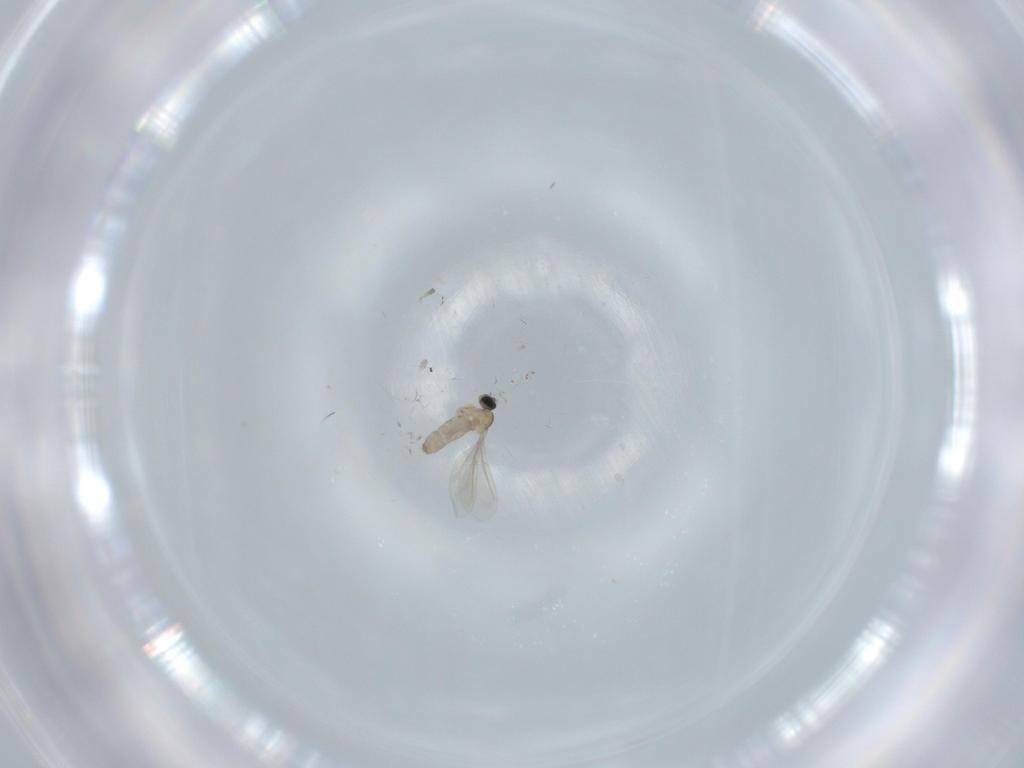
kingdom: Animalia
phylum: Arthropoda
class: Insecta
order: Diptera
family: Cecidomyiidae
